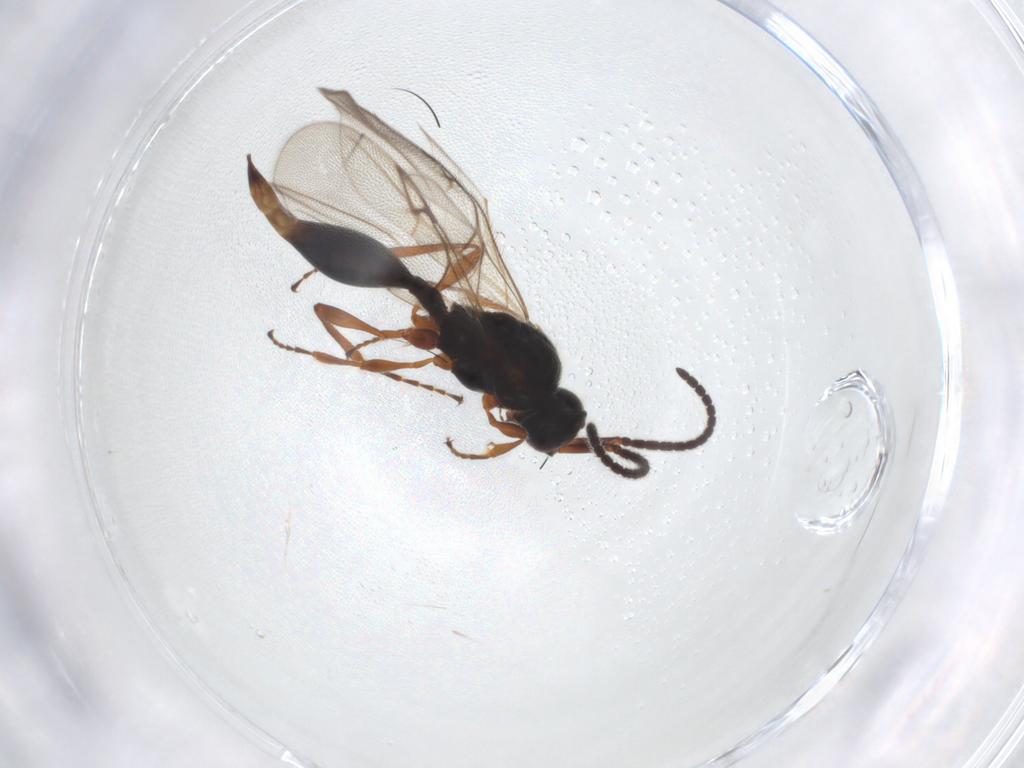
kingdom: Animalia
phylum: Arthropoda
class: Insecta
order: Hymenoptera
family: Diapriidae
